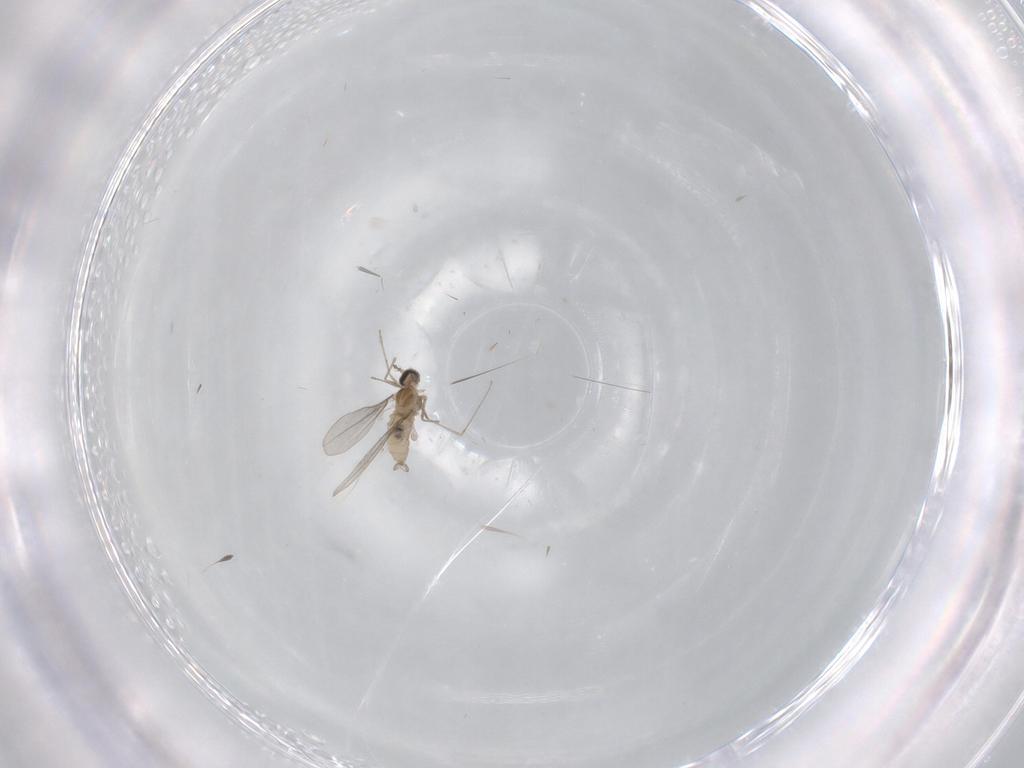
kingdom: Animalia
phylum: Arthropoda
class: Insecta
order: Diptera
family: Cecidomyiidae
